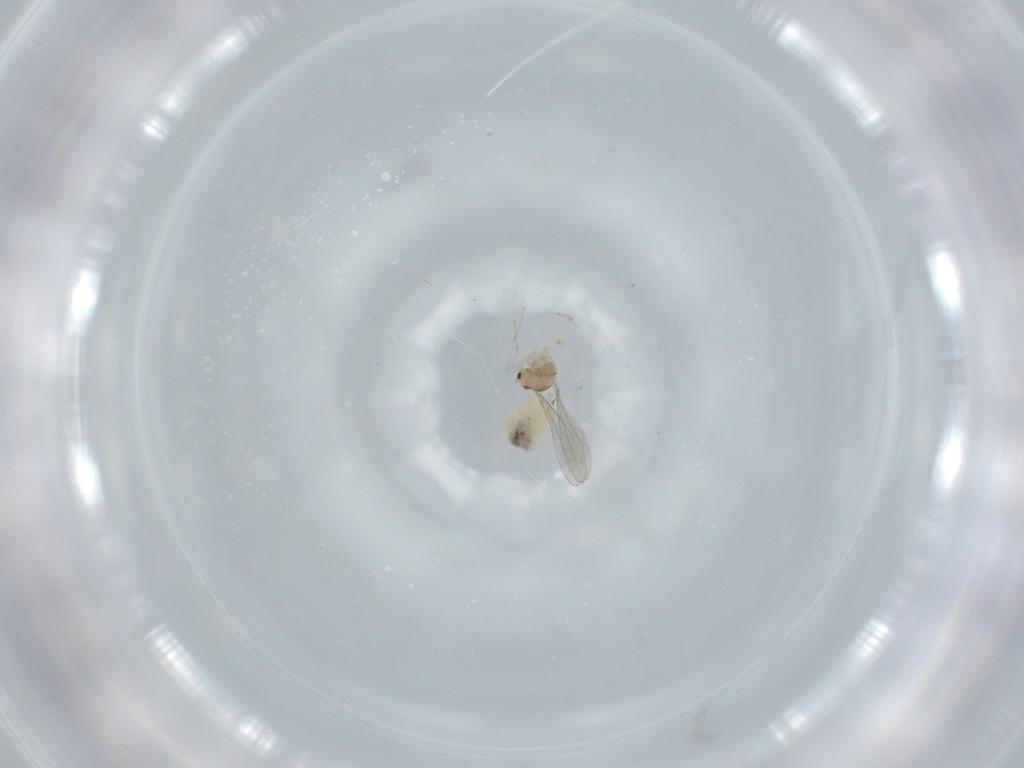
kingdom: Animalia
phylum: Arthropoda
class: Insecta
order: Diptera
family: Cecidomyiidae
